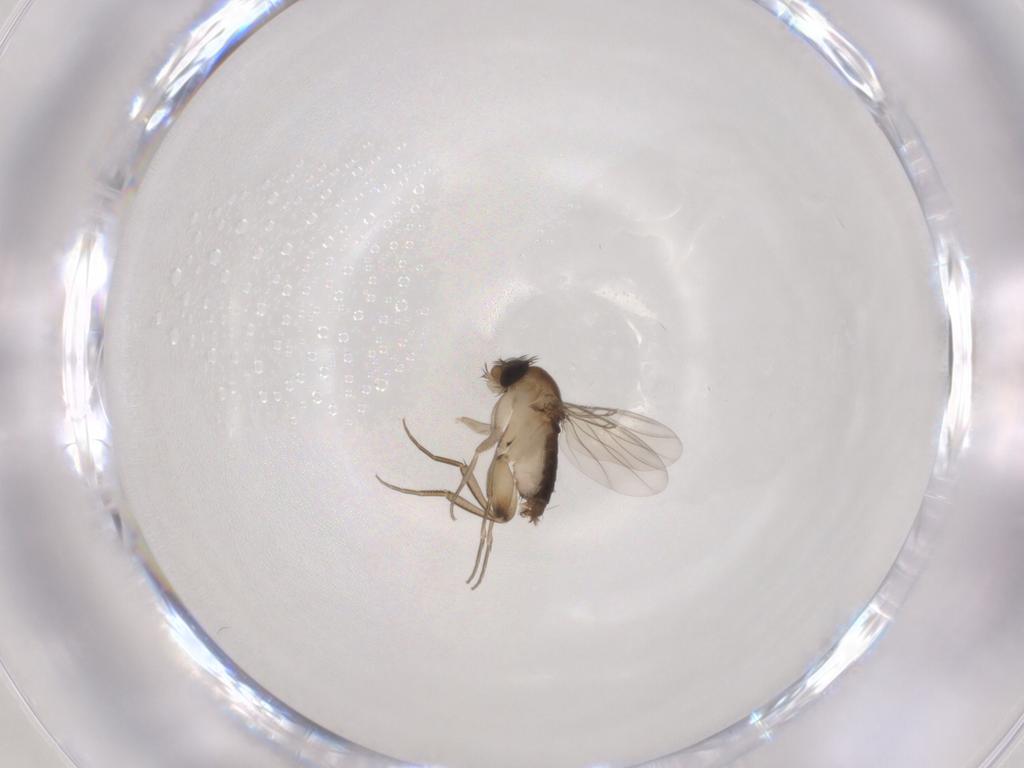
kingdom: Animalia
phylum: Arthropoda
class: Insecta
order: Diptera
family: Phoridae
